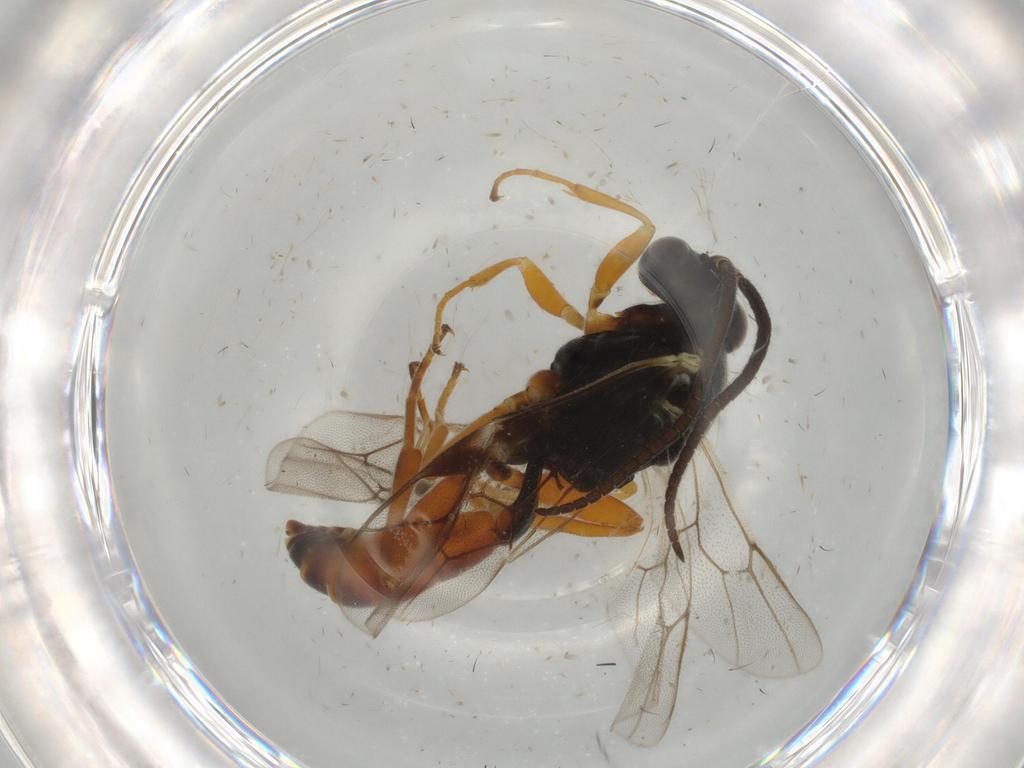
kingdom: Animalia
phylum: Arthropoda
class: Insecta
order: Hymenoptera
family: Ichneumonidae
